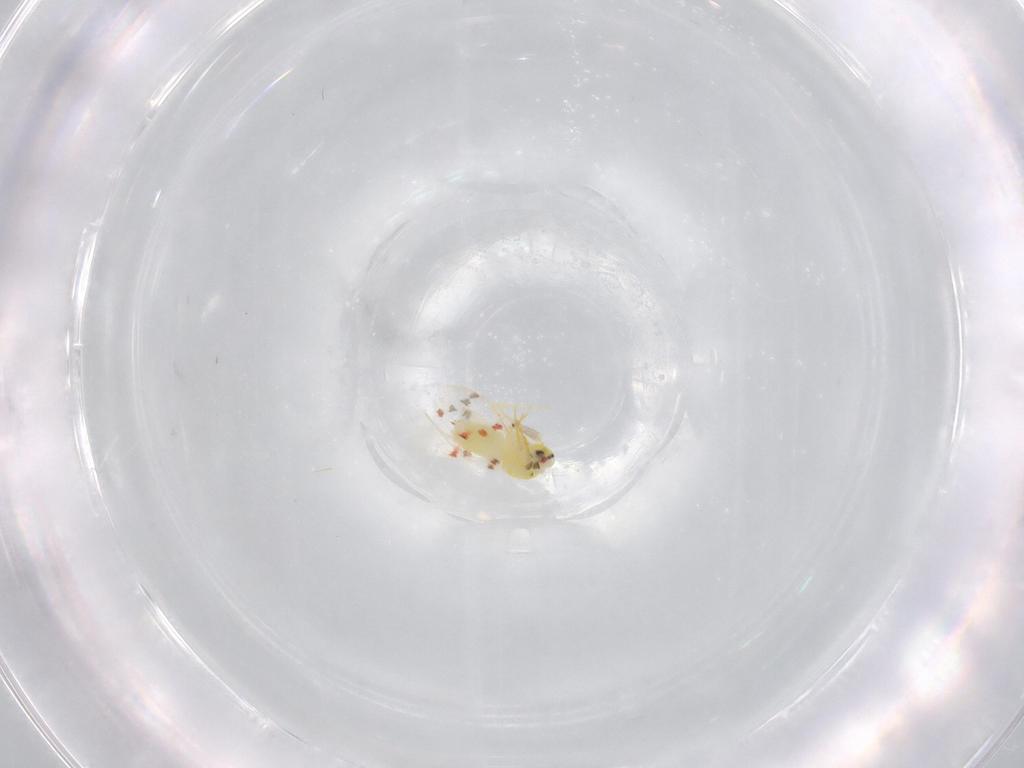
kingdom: Animalia
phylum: Arthropoda
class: Insecta
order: Hemiptera
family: Aleyrodidae
